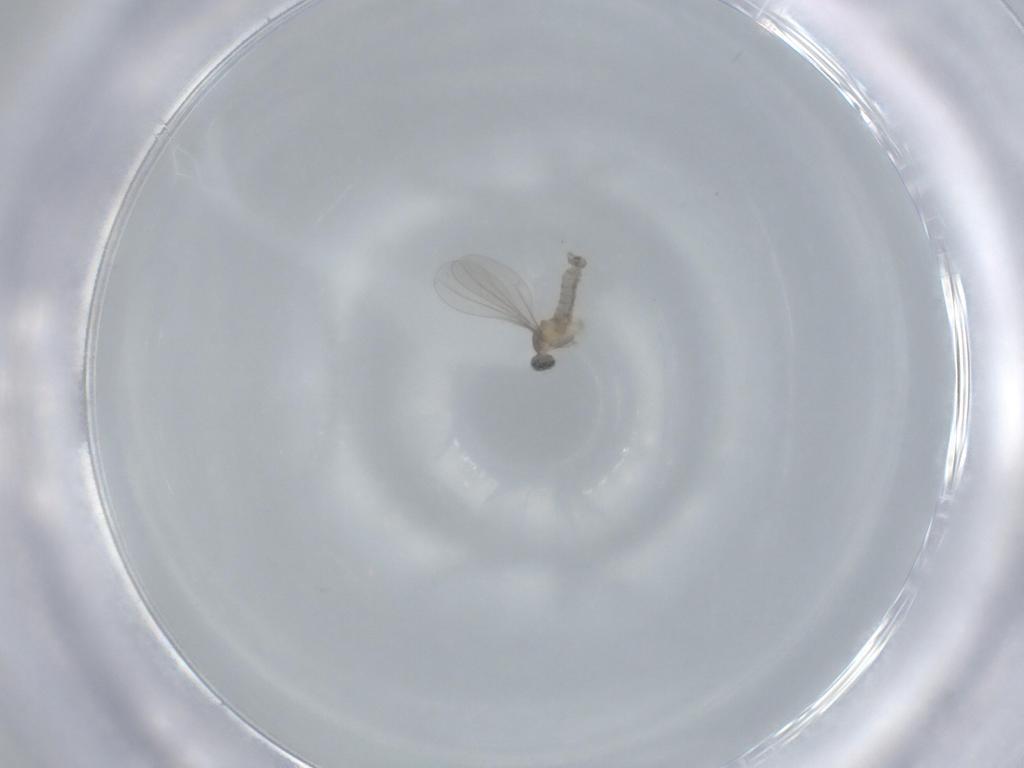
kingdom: Animalia
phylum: Arthropoda
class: Insecta
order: Diptera
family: Cecidomyiidae
